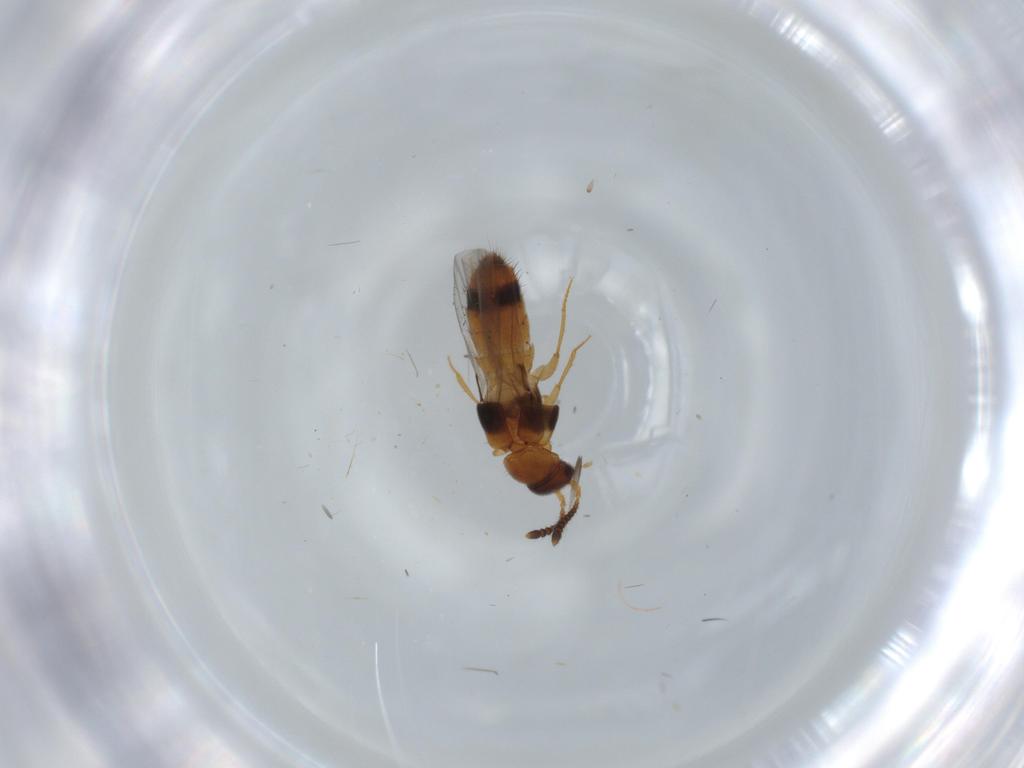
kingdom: Animalia
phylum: Arthropoda
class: Insecta
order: Coleoptera
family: Staphylinidae
